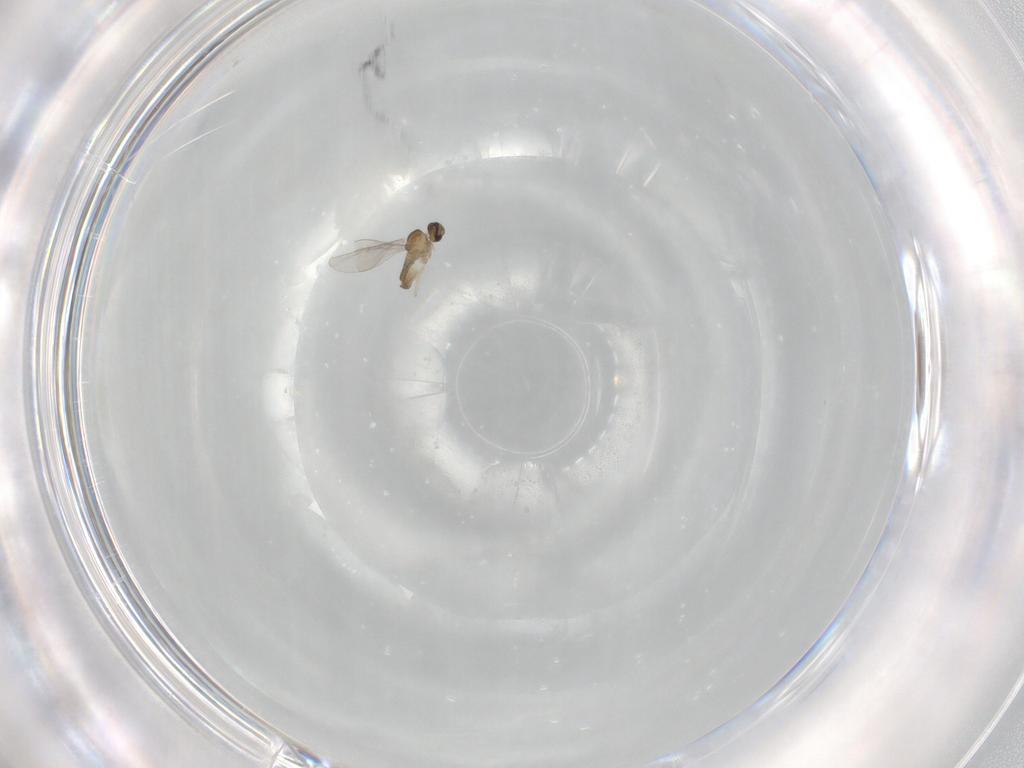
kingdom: Animalia
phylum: Arthropoda
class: Insecta
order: Diptera
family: Cecidomyiidae
